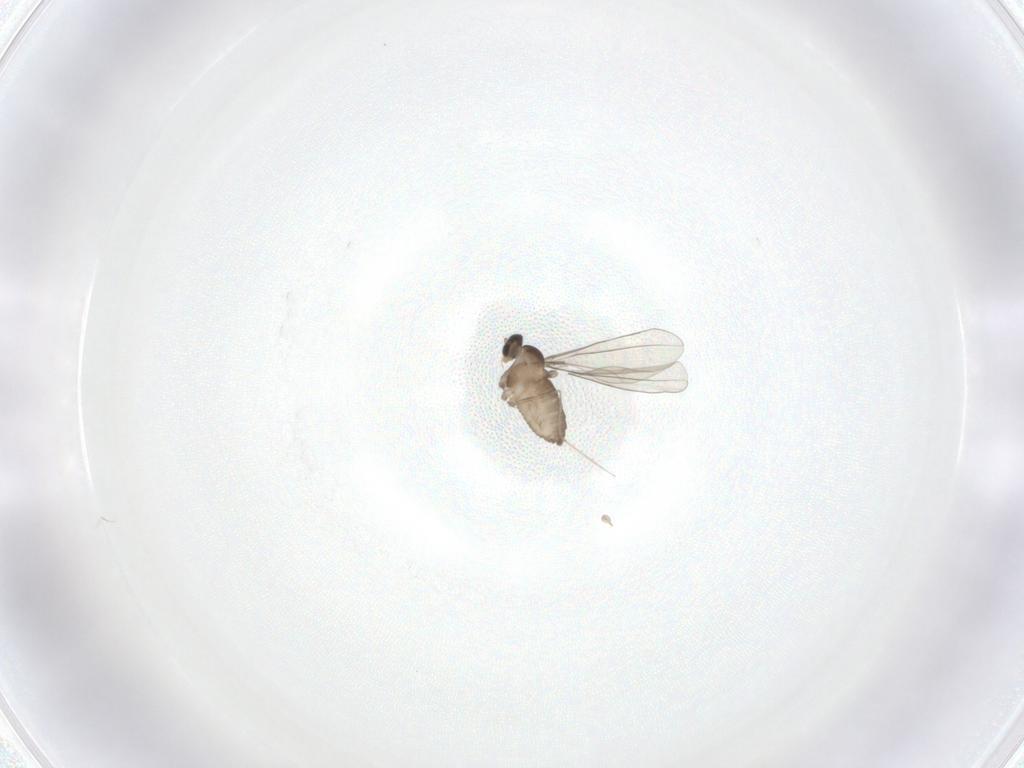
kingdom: Animalia
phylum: Arthropoda
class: Insecta
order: Diptera
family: Cecidomyiidae
